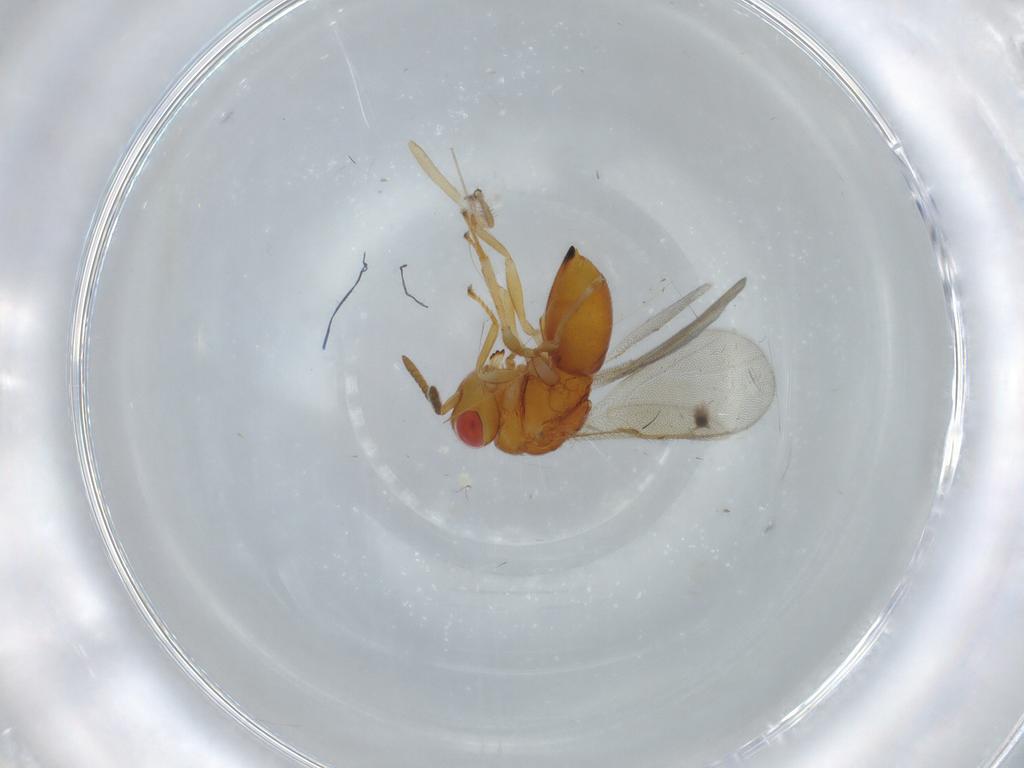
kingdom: Animalia
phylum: Arthropoda
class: Insecta
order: Hymenoptera
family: Eurytomidae
